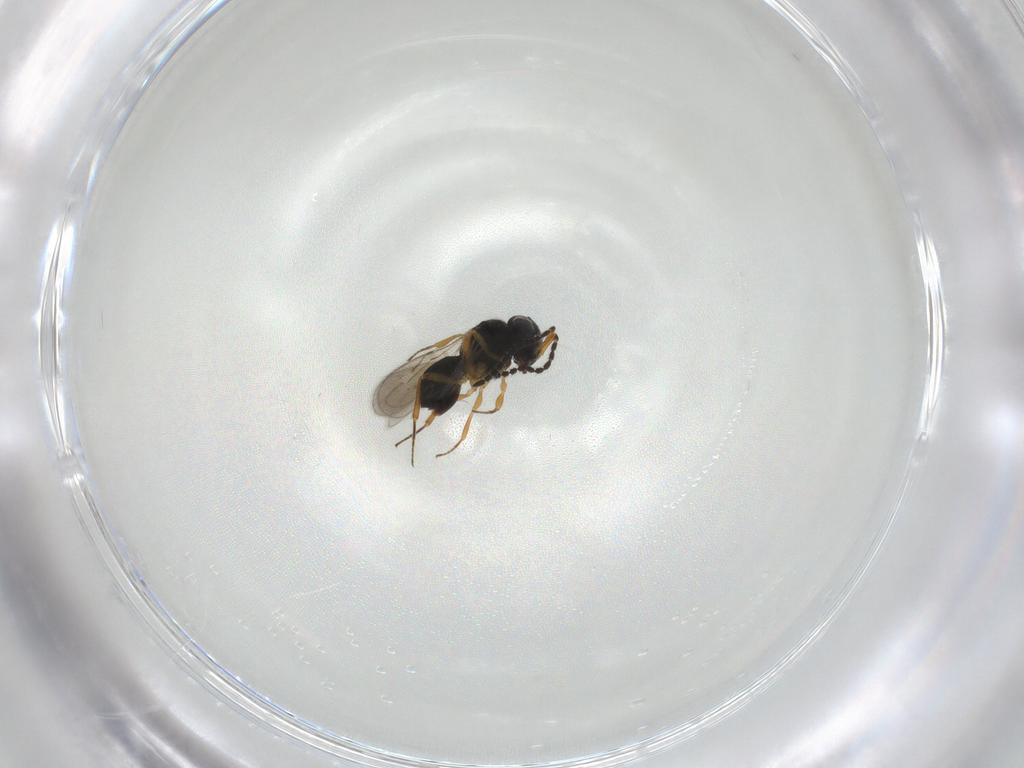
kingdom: Animalia
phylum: Arthropoda
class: Insecta
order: Hymenoptera
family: Scelionidae
